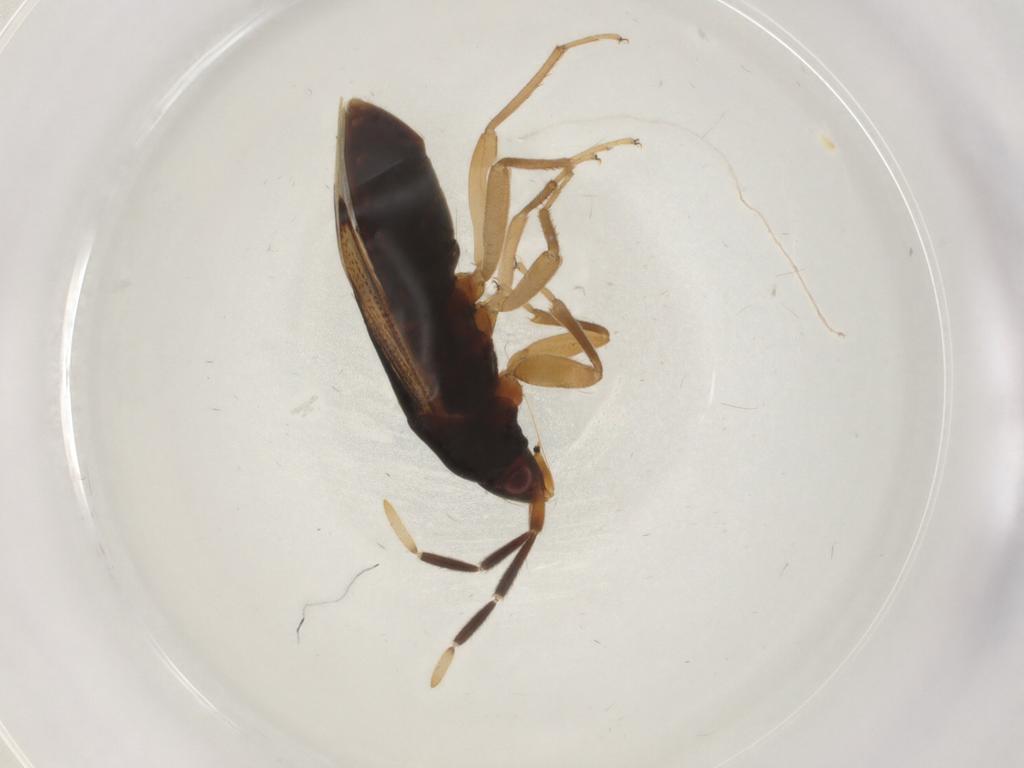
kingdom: Animalia
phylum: Arthropoda
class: Insecta
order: Hemiptera
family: Rhyparochromidae
